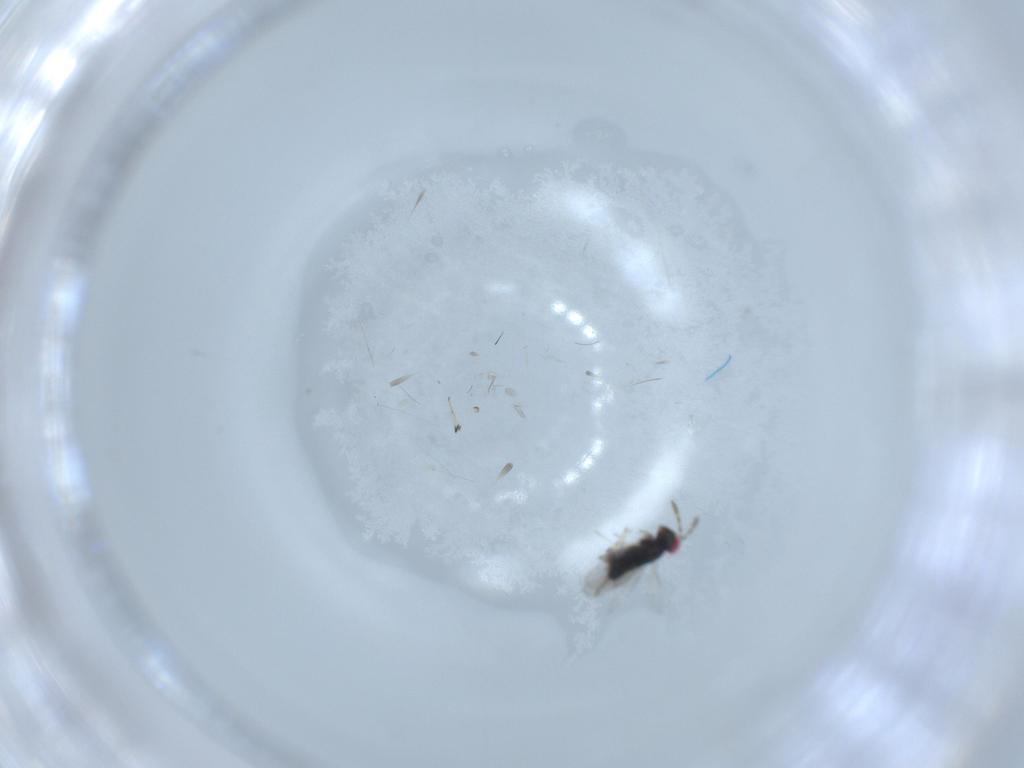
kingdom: Animalia
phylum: Arthropoda
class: Insecta
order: Hymenoptera
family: Azotidae
